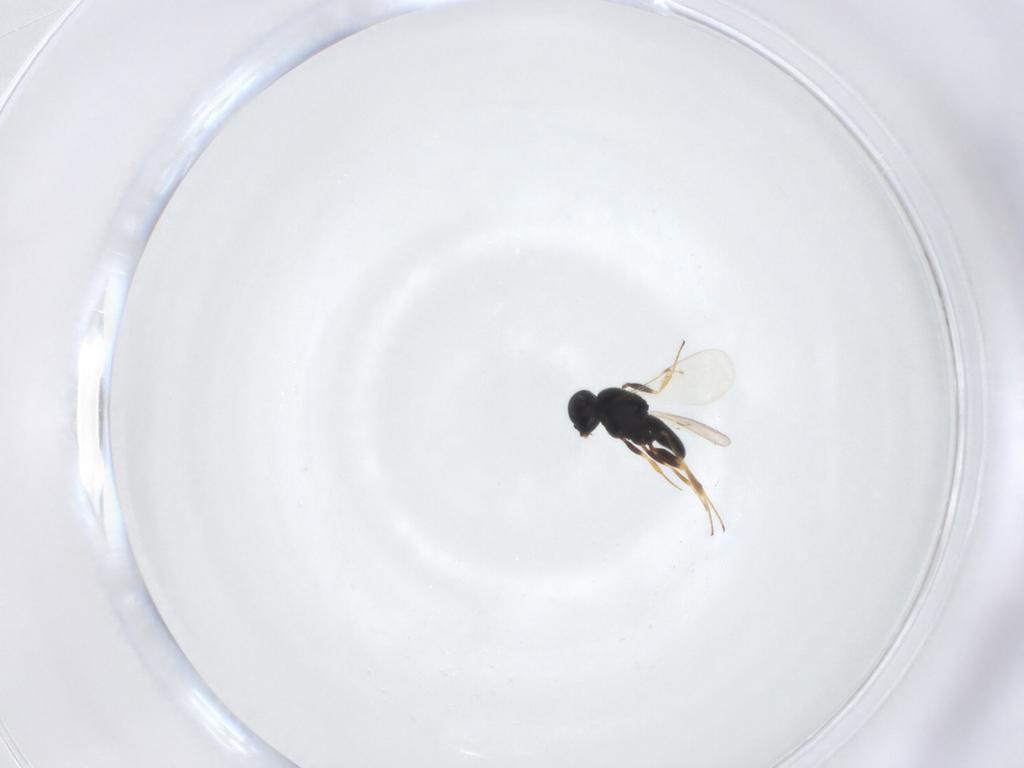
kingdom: Animalia
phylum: Arthropoda
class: Insecta
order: Hymenoptera
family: Scelionidae
